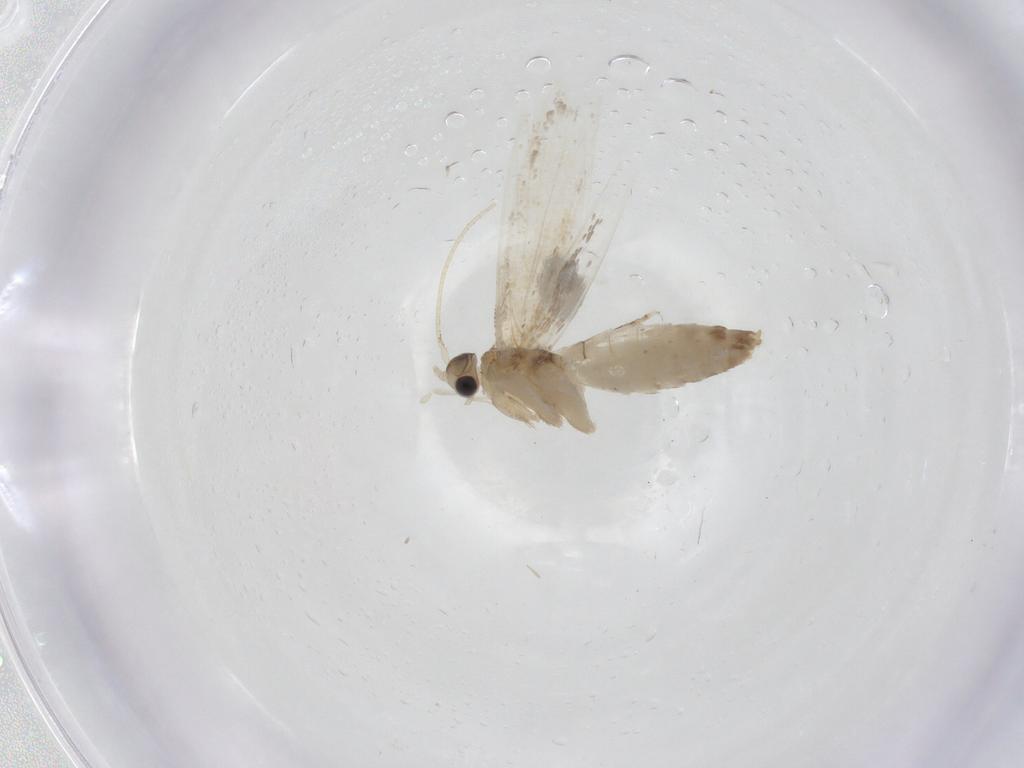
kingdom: Animalia
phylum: Arthropoda
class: Insecta
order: Lepidoptera
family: Dryadaulidae
